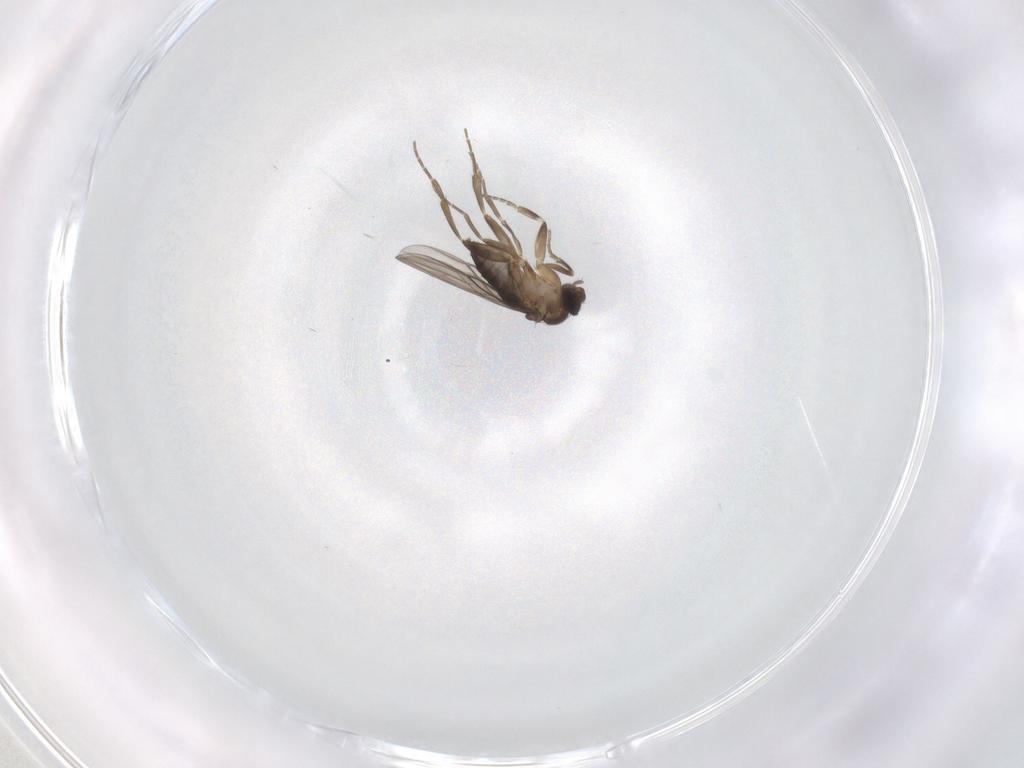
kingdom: Animalia
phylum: Arthropoda
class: Insecta
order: Diptera
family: Phoridae
